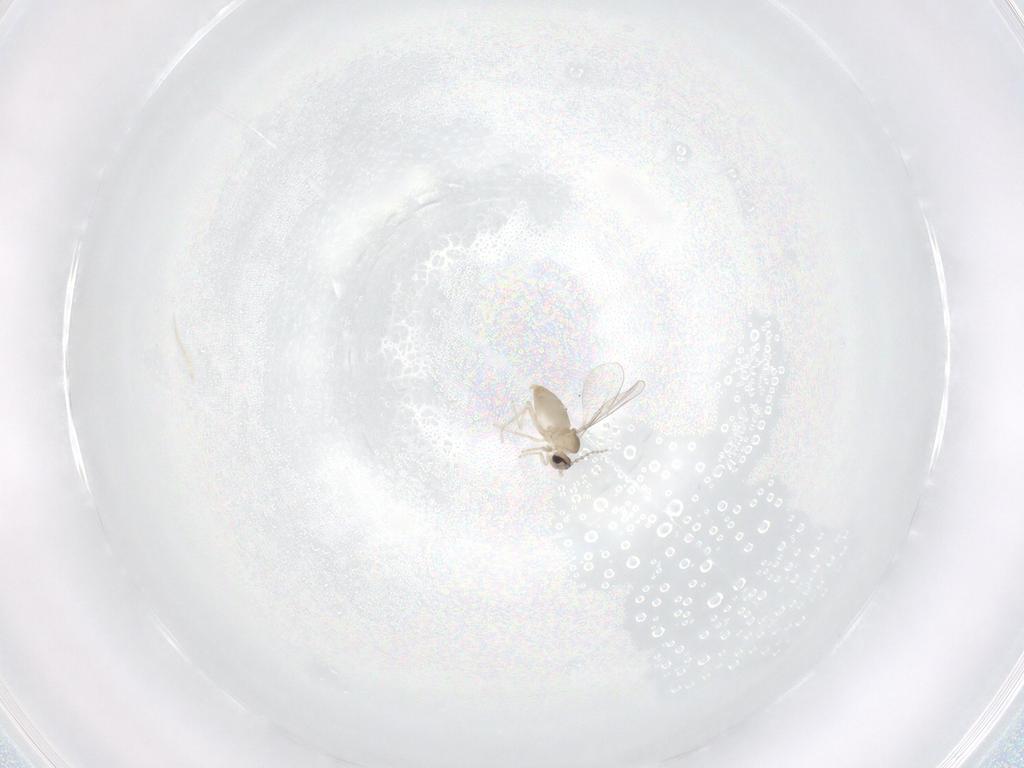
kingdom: Animalia
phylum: Arthropoda
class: Insecta
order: Diptera
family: Cecidomyiidae
